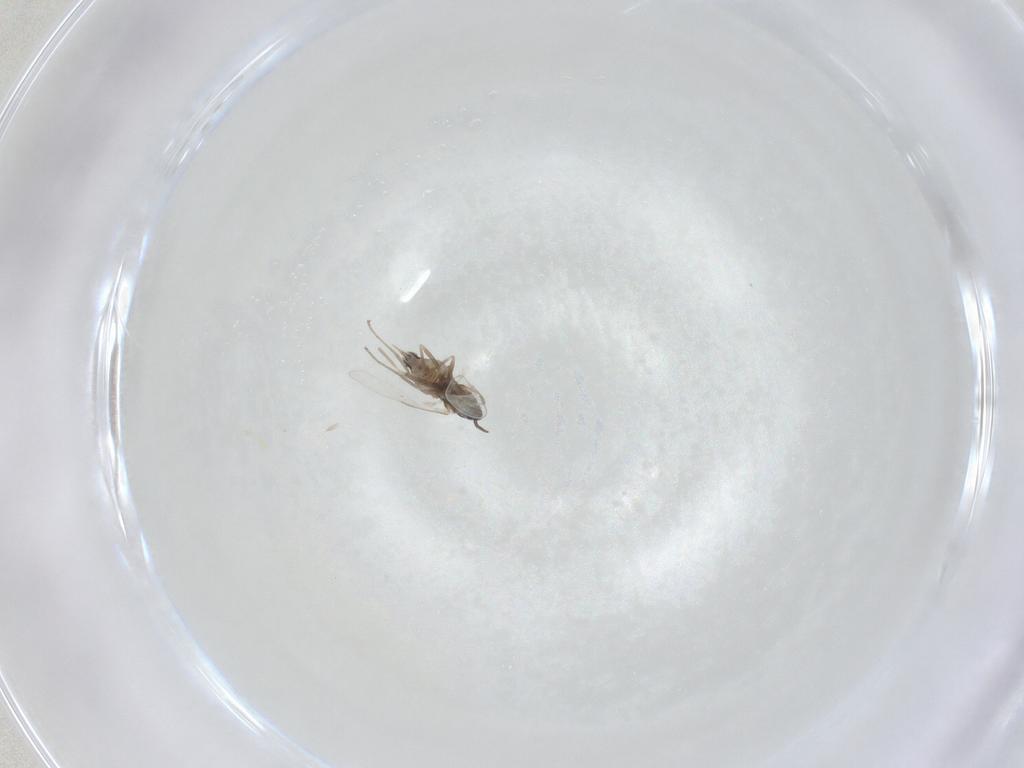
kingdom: Animalia
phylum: Arthropoda
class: Insecta
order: Diptera
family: Cecidomyiidae
